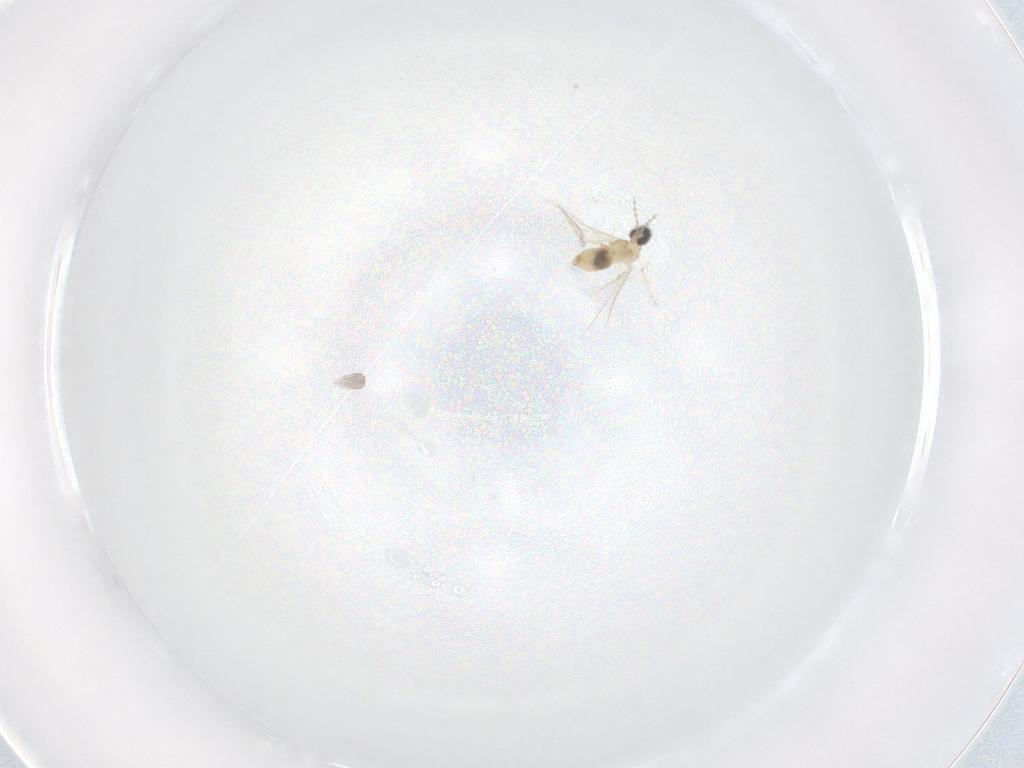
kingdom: Animalia
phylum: Arthropoda
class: Insecta
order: Diptera
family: Cecidomyiidae
